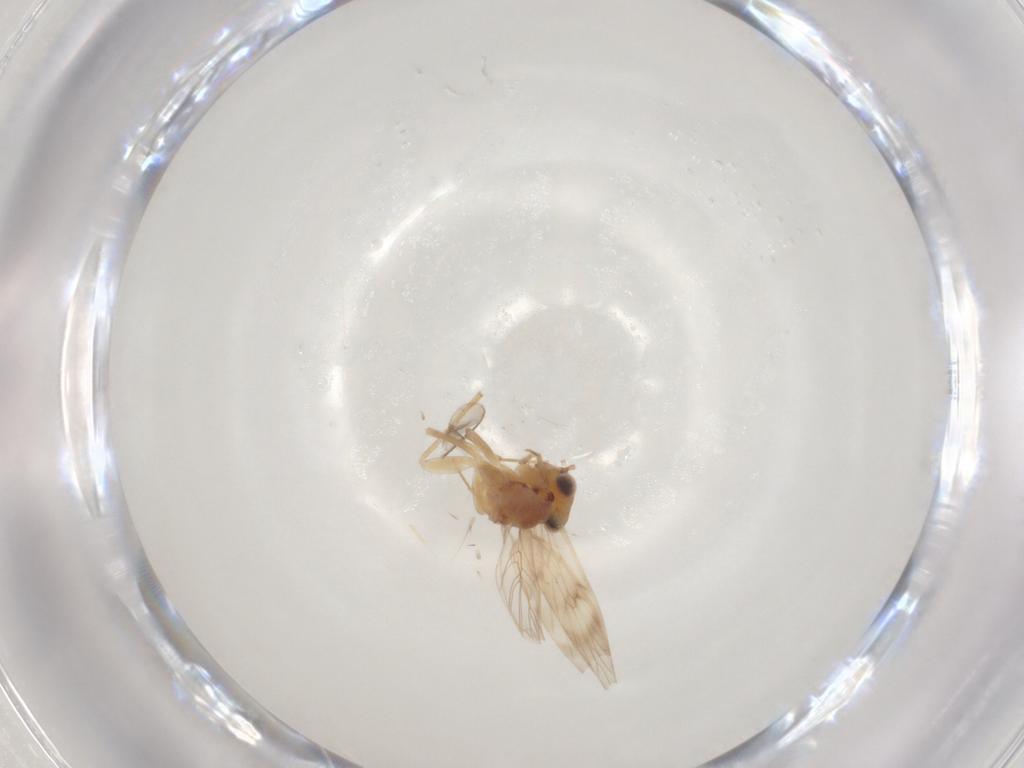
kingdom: Animalia
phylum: Arthropoda
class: Insecta
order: Psocodea
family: Lepidopsocidae
